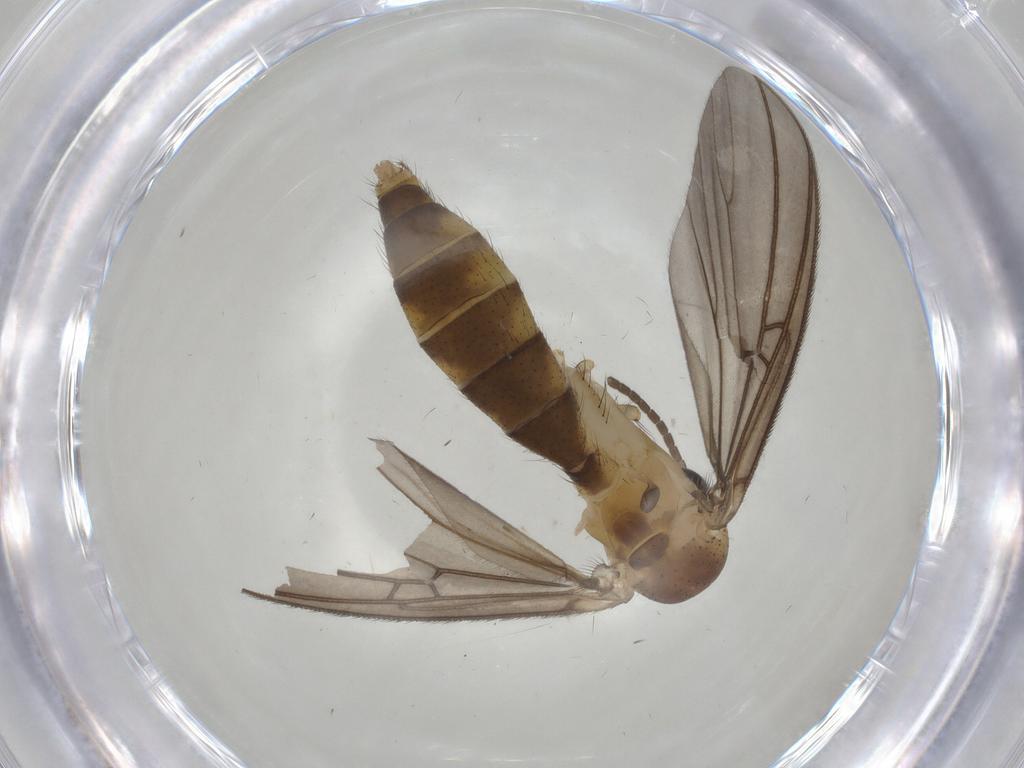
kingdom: Animalia
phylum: Arthropoda
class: Insecta
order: Diptera
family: Mycetophilidae
